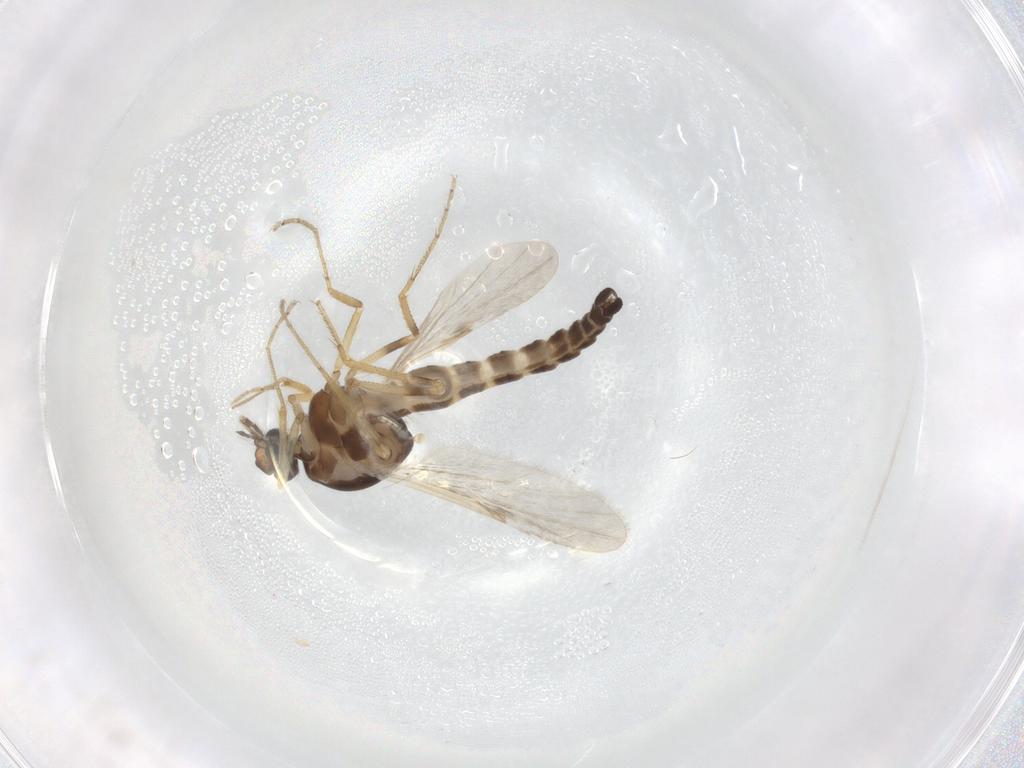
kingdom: Animalia
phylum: Arthropoda
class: Insecta
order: Diptera
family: Ceratopogonidae
